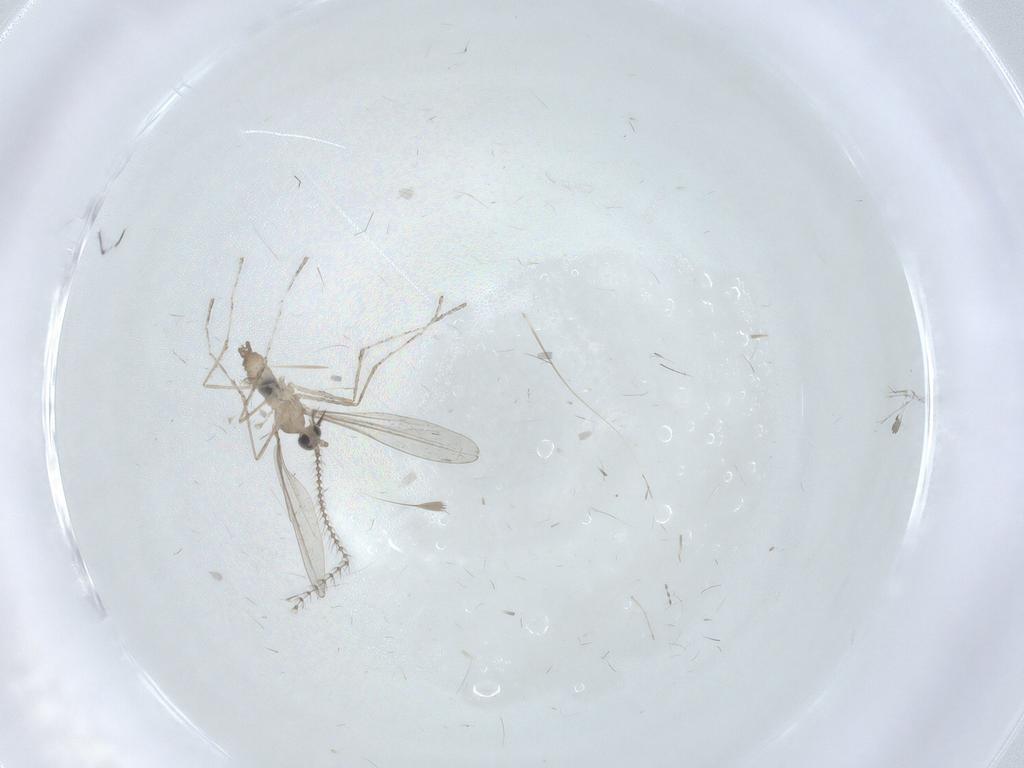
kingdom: Animalia
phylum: Arthropoda
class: Insecta
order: Diptera
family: Cecidomyiidae
